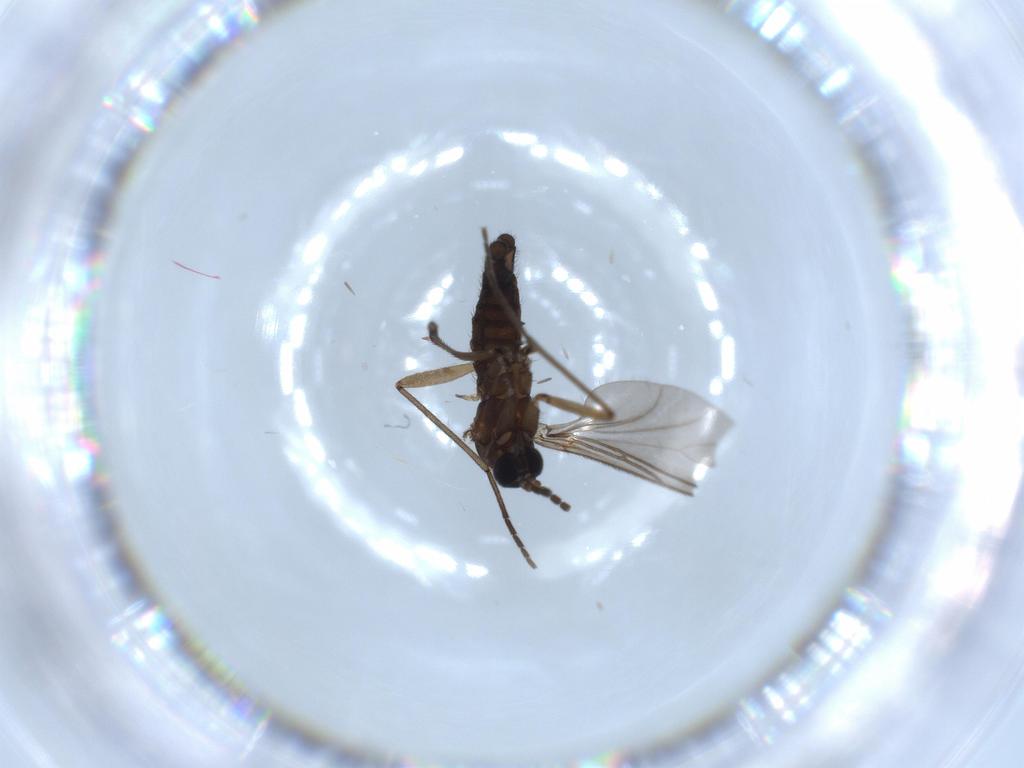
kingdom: Animalia
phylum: Arthropoda
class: Insecta
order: Diptera
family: Sciaridae
